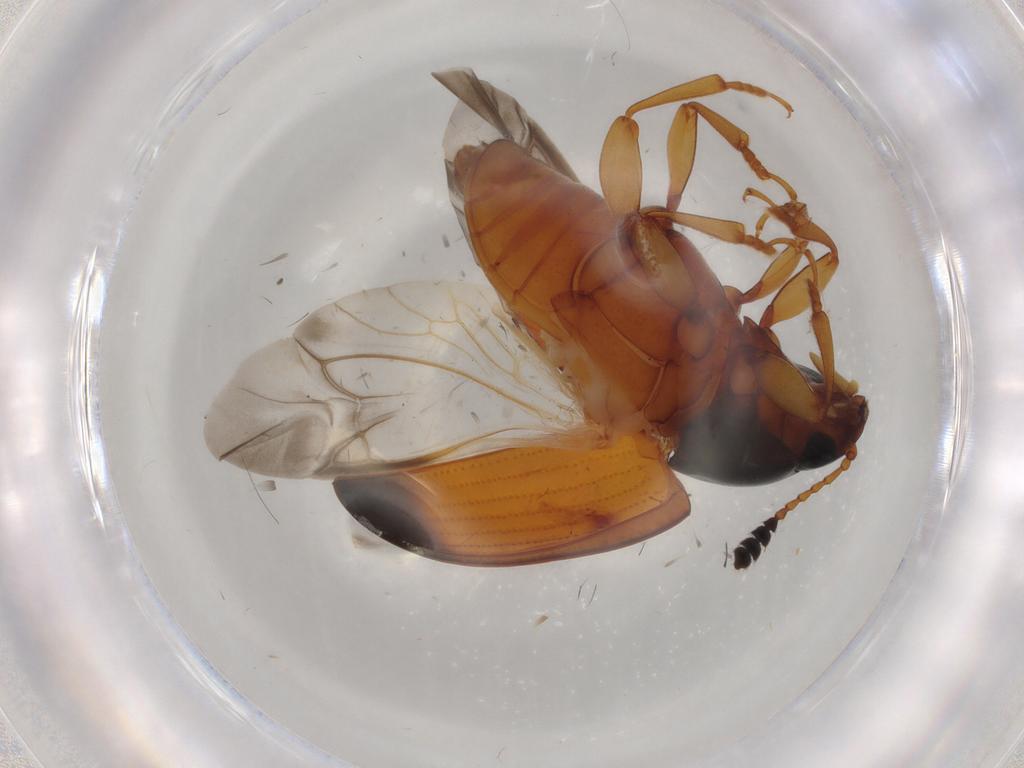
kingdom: Animalia
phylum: Arthropoda
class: Insecta
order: Coleoptera
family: Erotylidae
